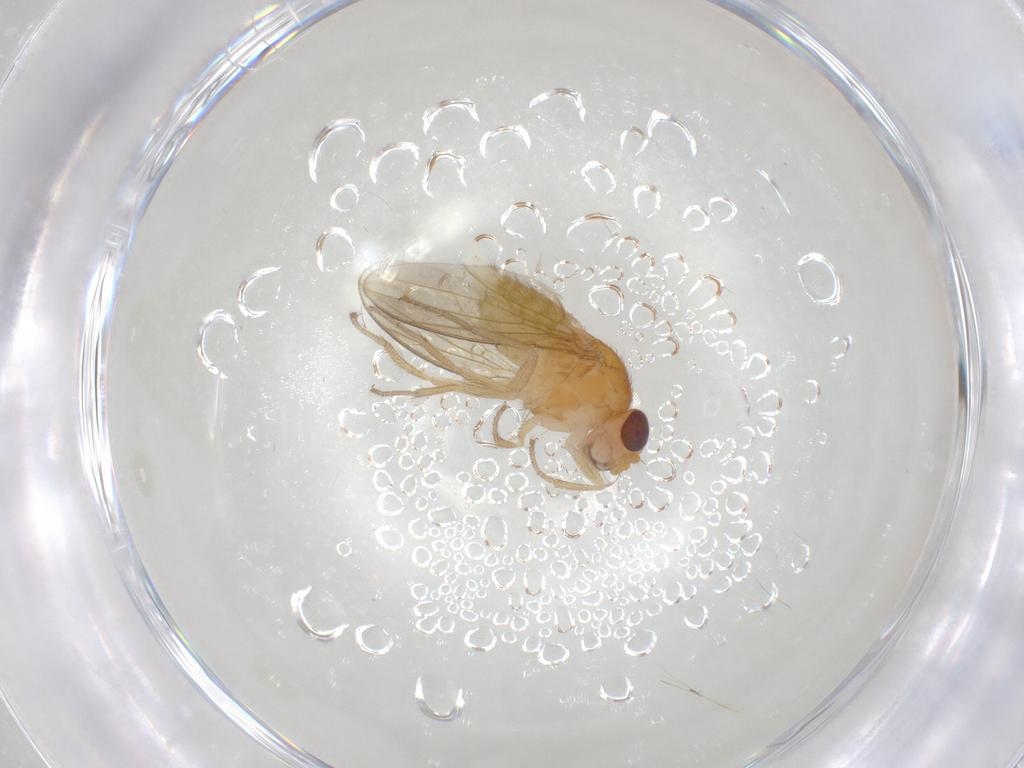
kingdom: Animalia
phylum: Arthropoda
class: Insecta
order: Diptera
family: Drosophilidae
